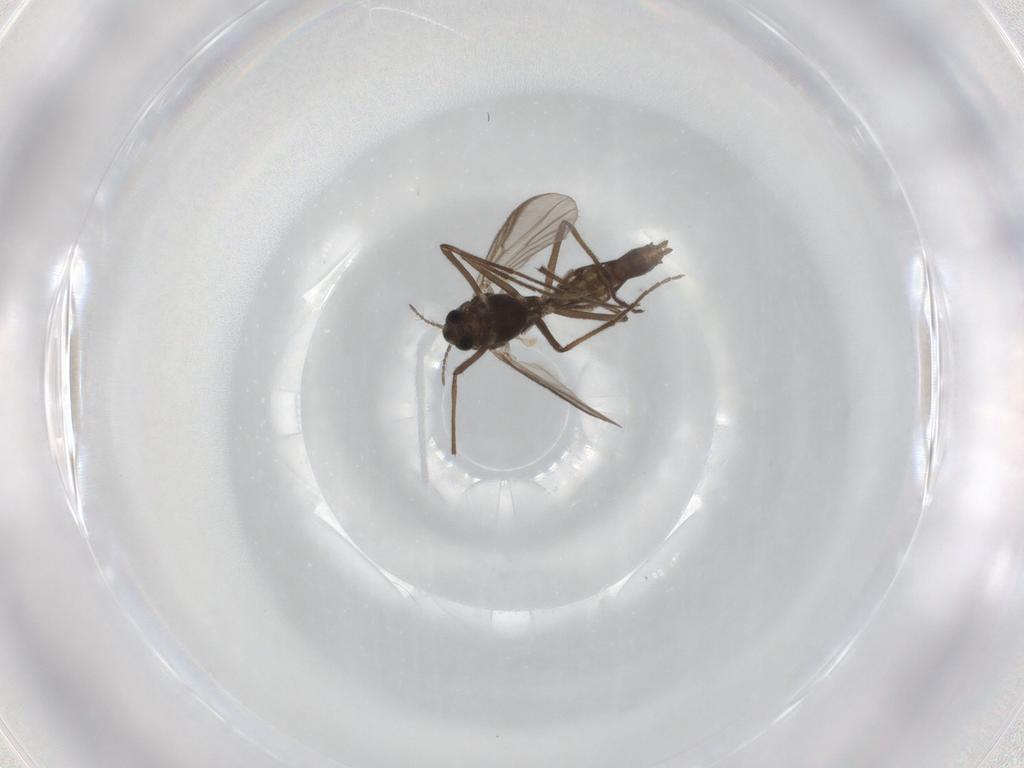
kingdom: Animalia
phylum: Arthropoda
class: Insecta
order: Diptera
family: Chironomidae
